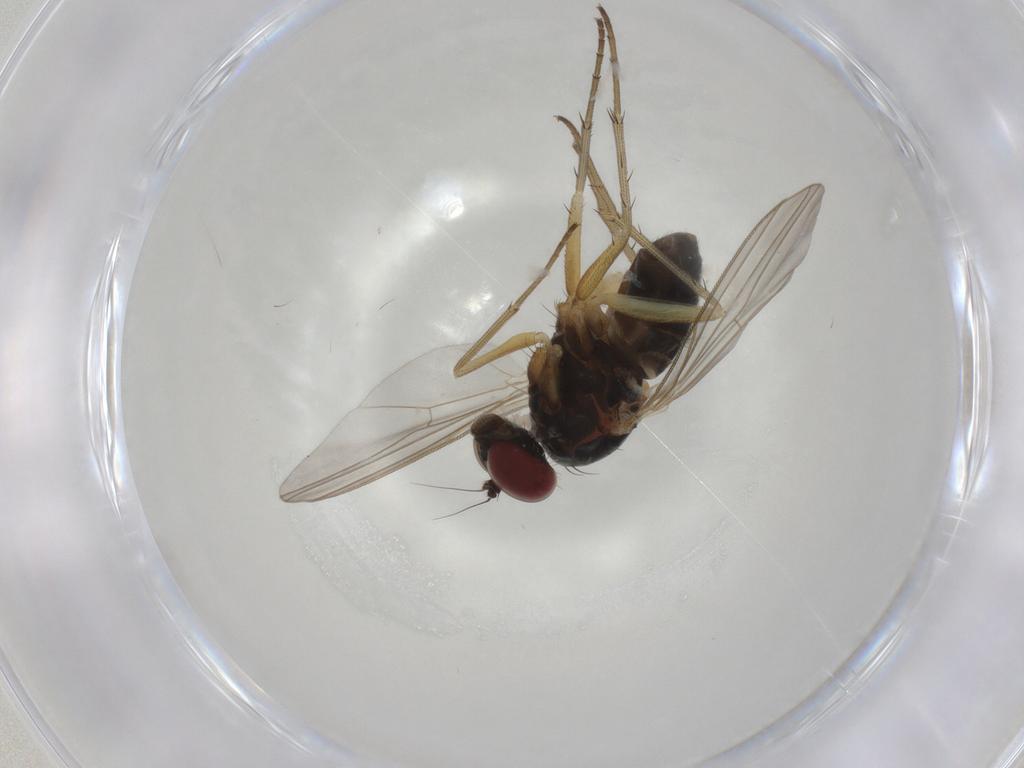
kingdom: Animalia
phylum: Arthropoda
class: Insecta
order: Diptera
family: Dolichopodidae
